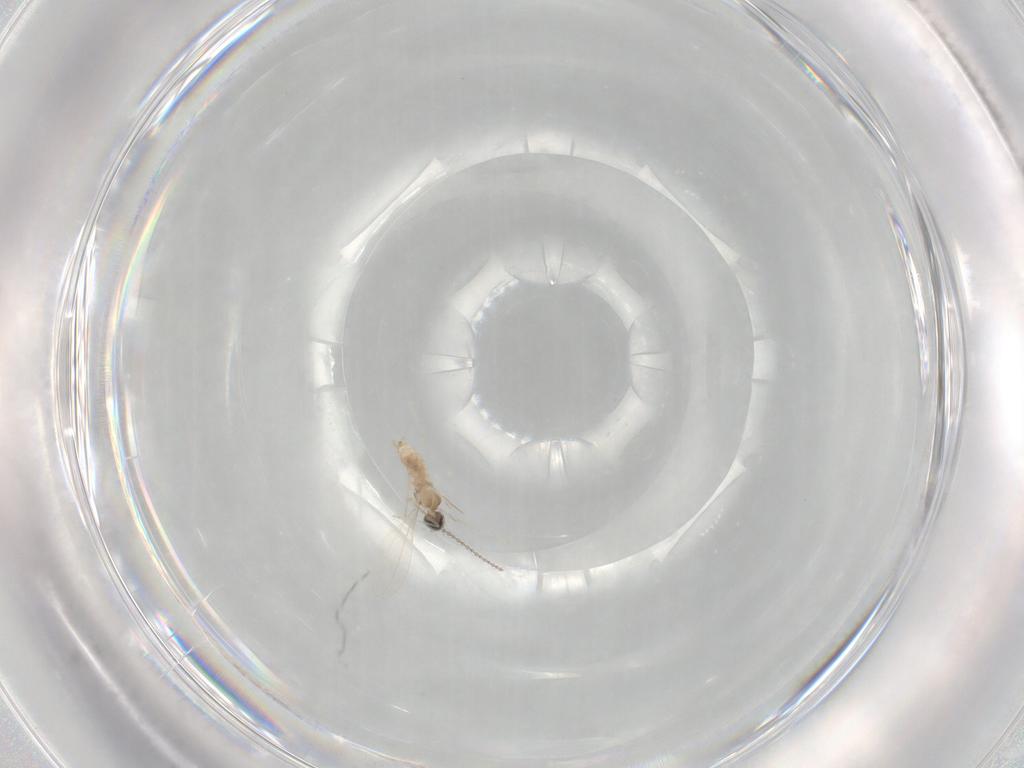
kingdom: Animalia
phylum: Arthropoda
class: Insecta
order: Diptera
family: Cecidomyiidae
